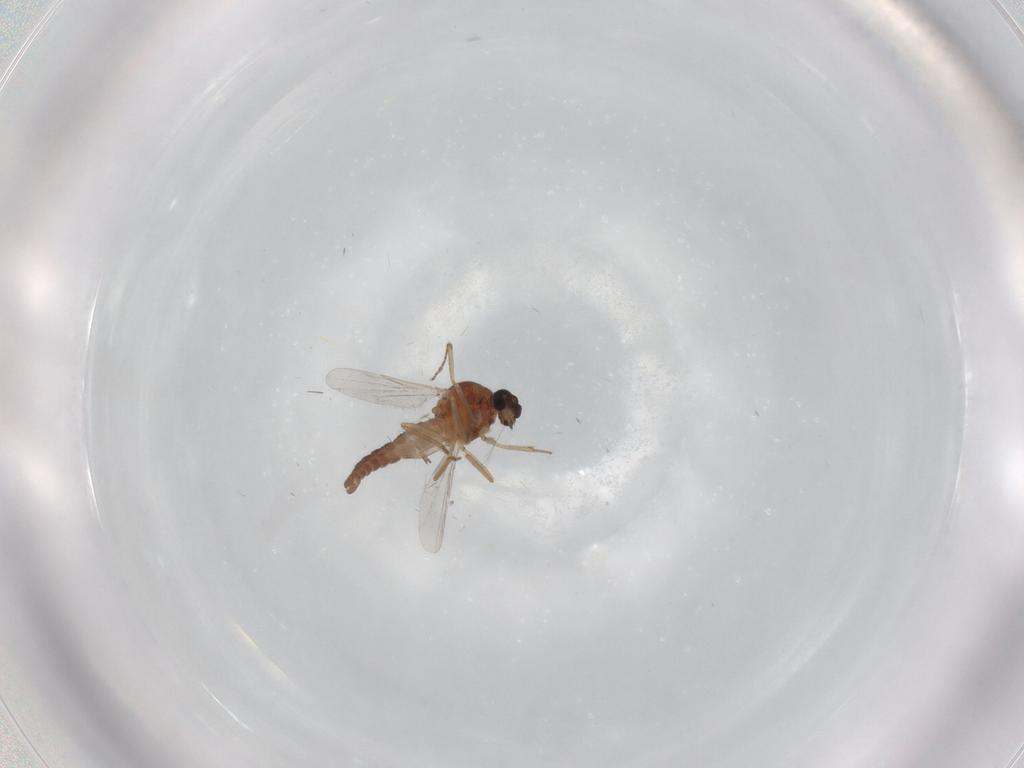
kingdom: Animalia
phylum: Arthropoda
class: Insecta
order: Diptera
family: Ceratopogonidae
